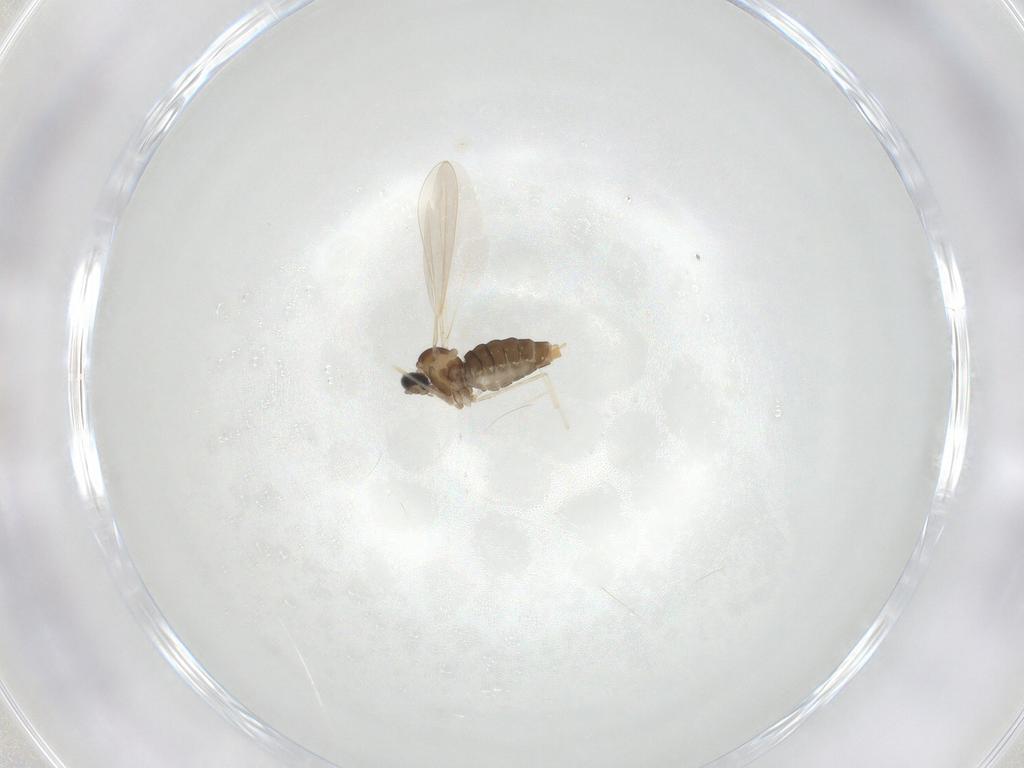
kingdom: Animalia
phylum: Arthropoda
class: Insecta
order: Diptera
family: Cecidomyiidae
